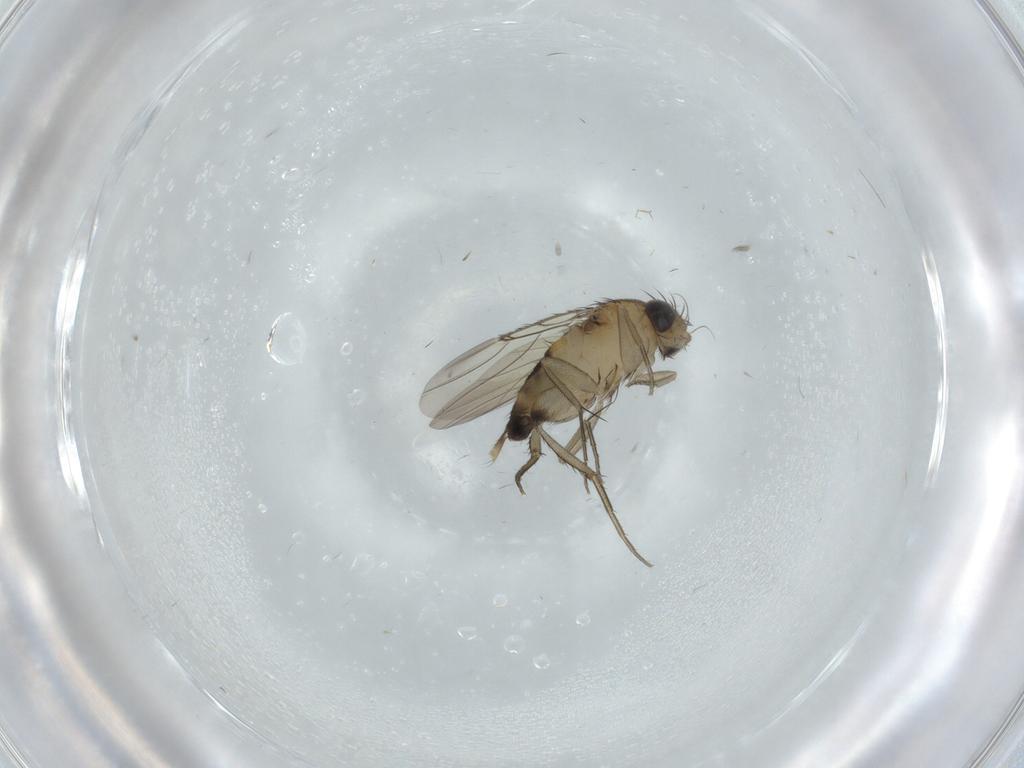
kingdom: Animalia
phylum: Arthropoda
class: Insecta
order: Diptera
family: Phoridae
